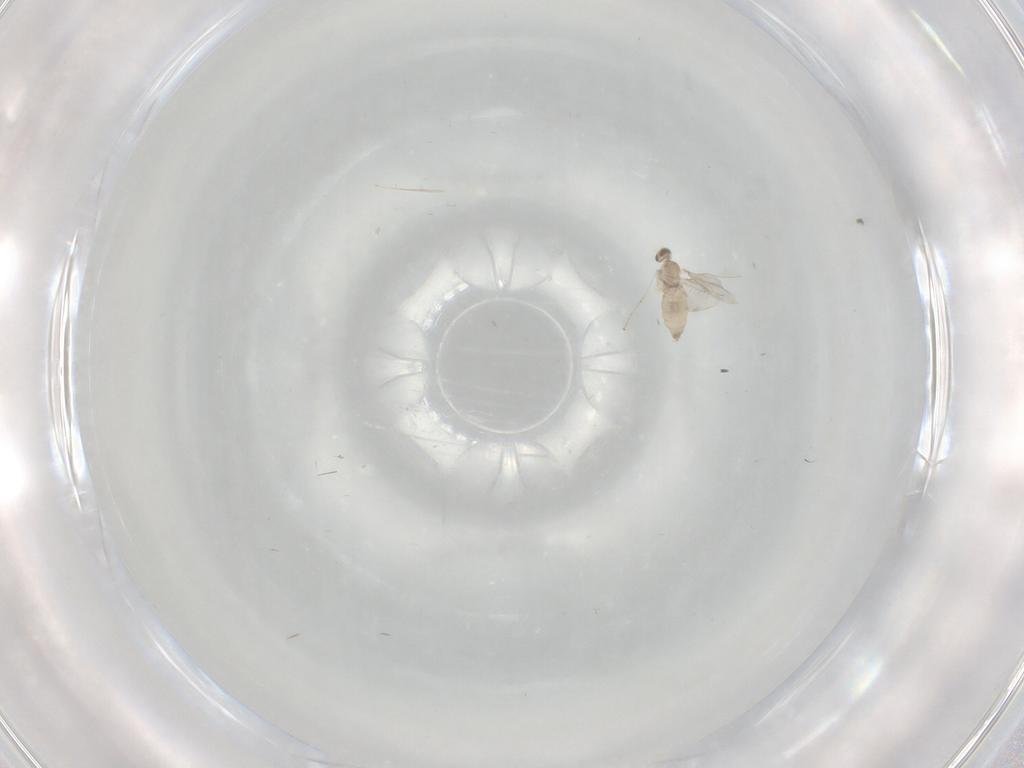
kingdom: Animalia
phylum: Arthropoda
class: Insecta
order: Diptera
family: Cecidomyiidae
